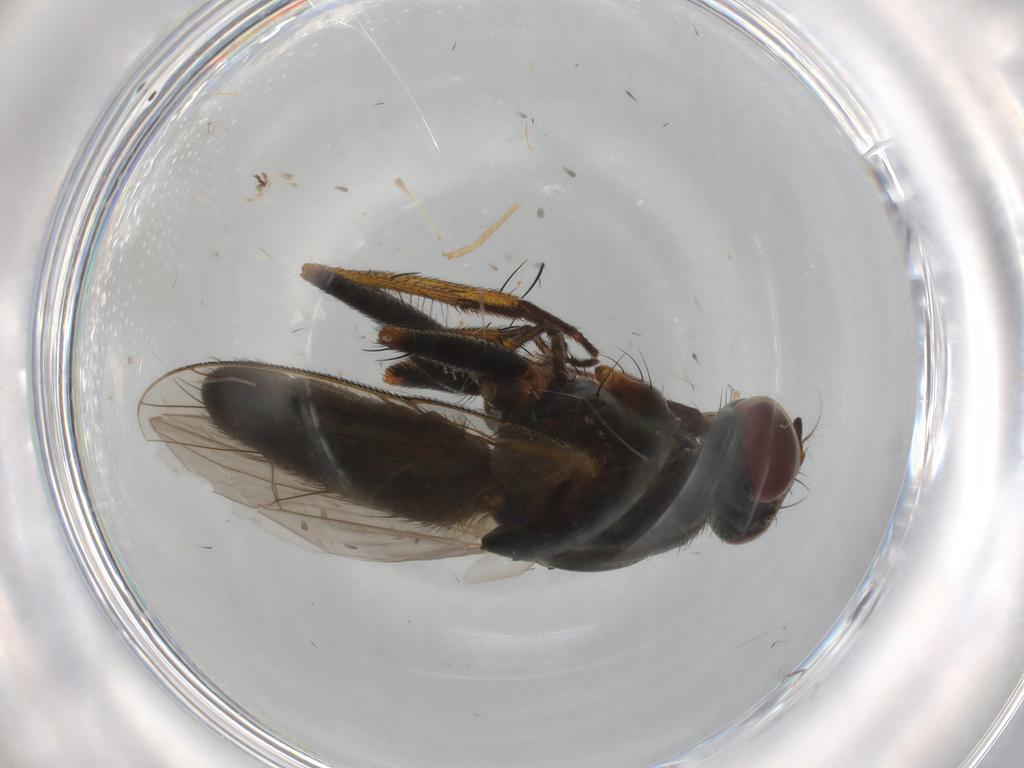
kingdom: Animalia
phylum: Arthropoda
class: Insecta
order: Diptera
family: Muscidae
